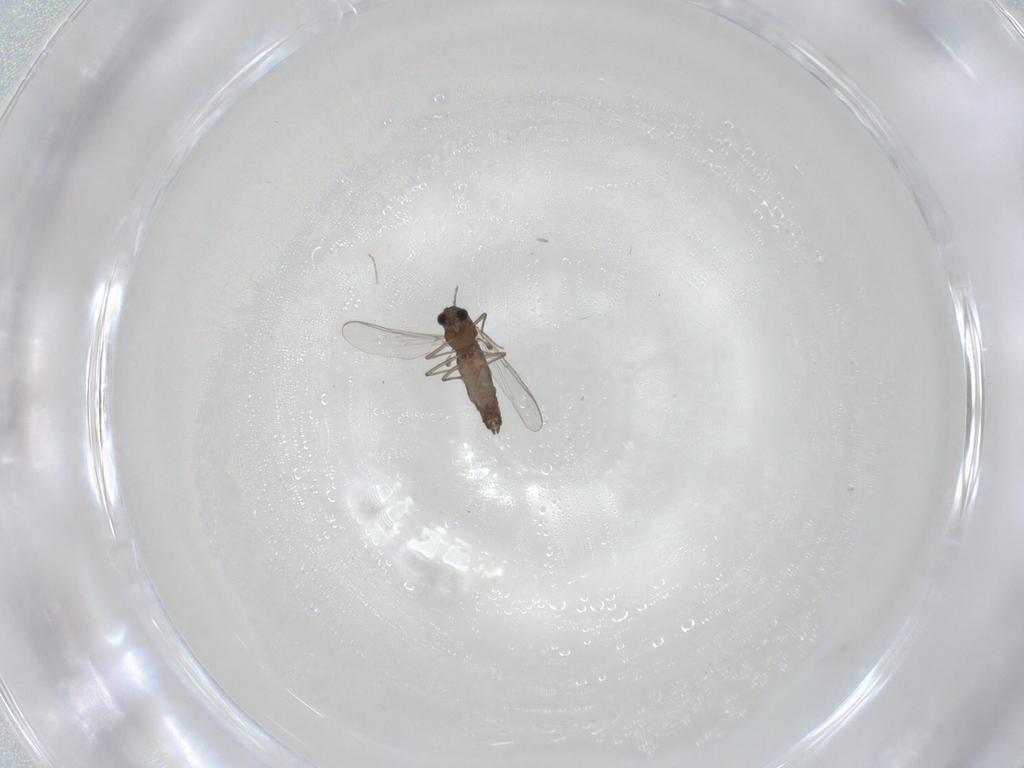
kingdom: Animalia
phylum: Arthropoda
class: Insecta
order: Diptera
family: Chironomidae
